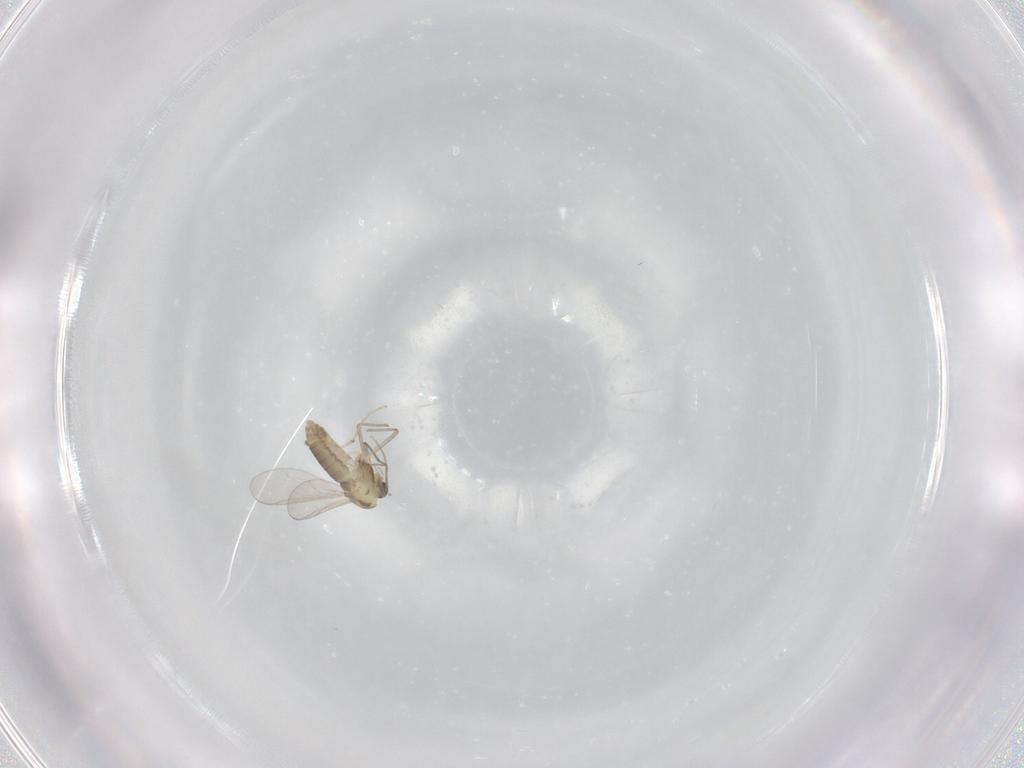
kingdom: Animalia
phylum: Arthropoda
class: Insecta
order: Diptera
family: Chironomidae
